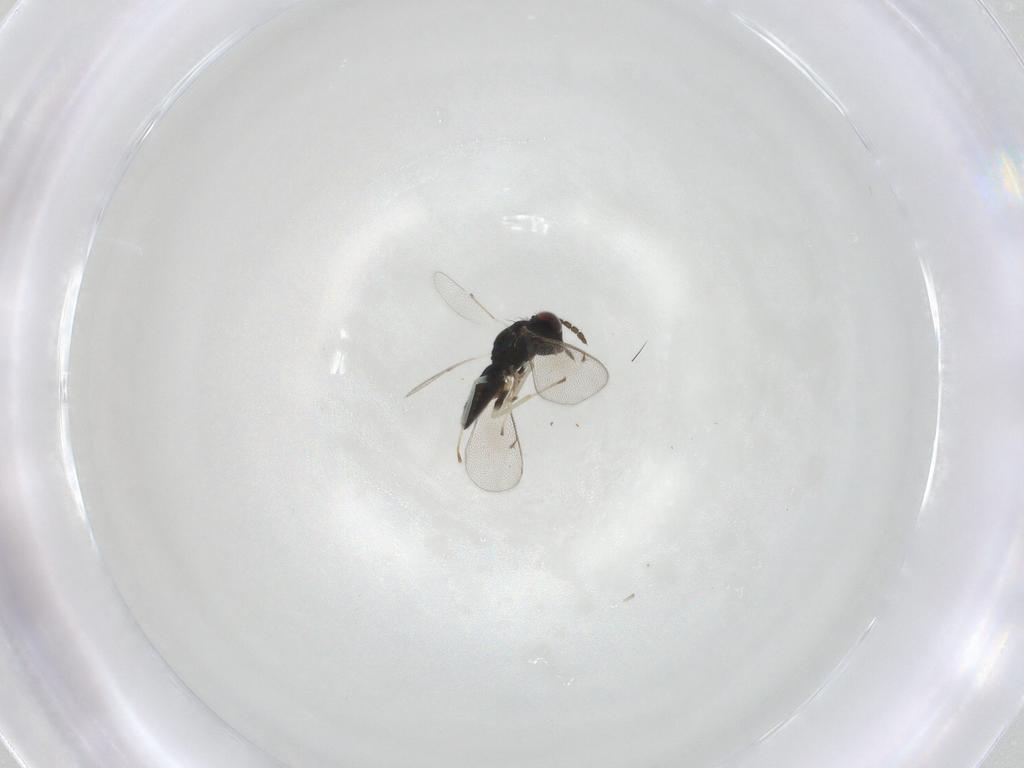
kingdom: Animalia
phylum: Arthropoda
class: Insecta
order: Hymenoptera
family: Eulophidae
